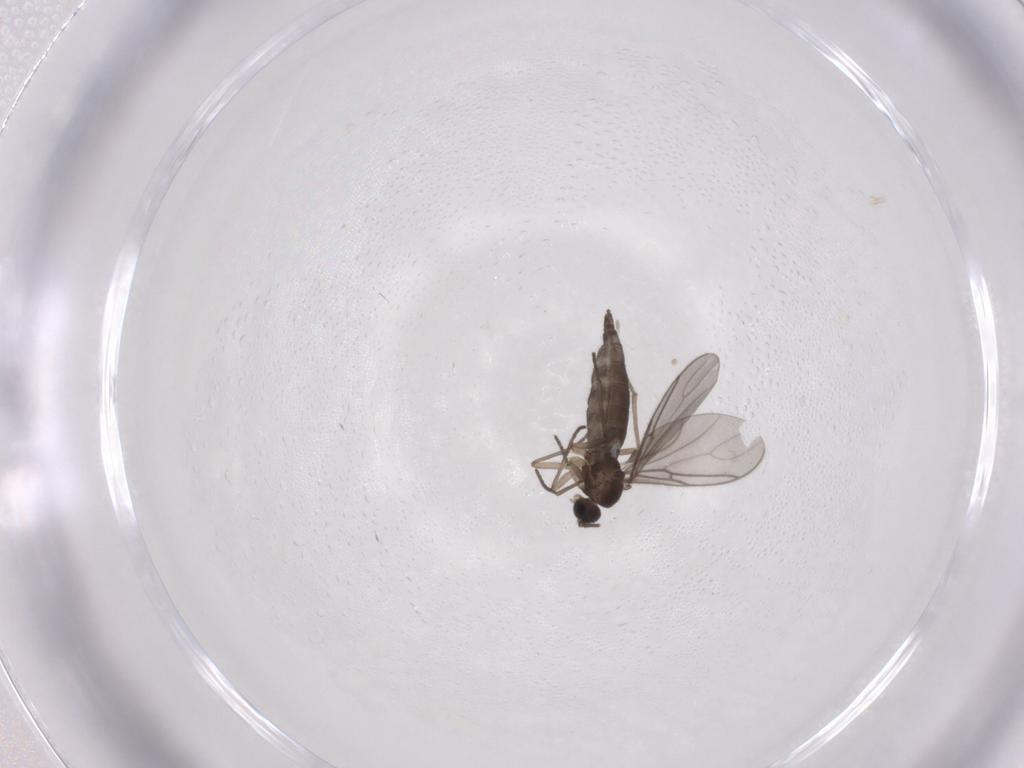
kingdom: Animalia
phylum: Arthropoda
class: Insecta
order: Diptera
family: Sciaridae
